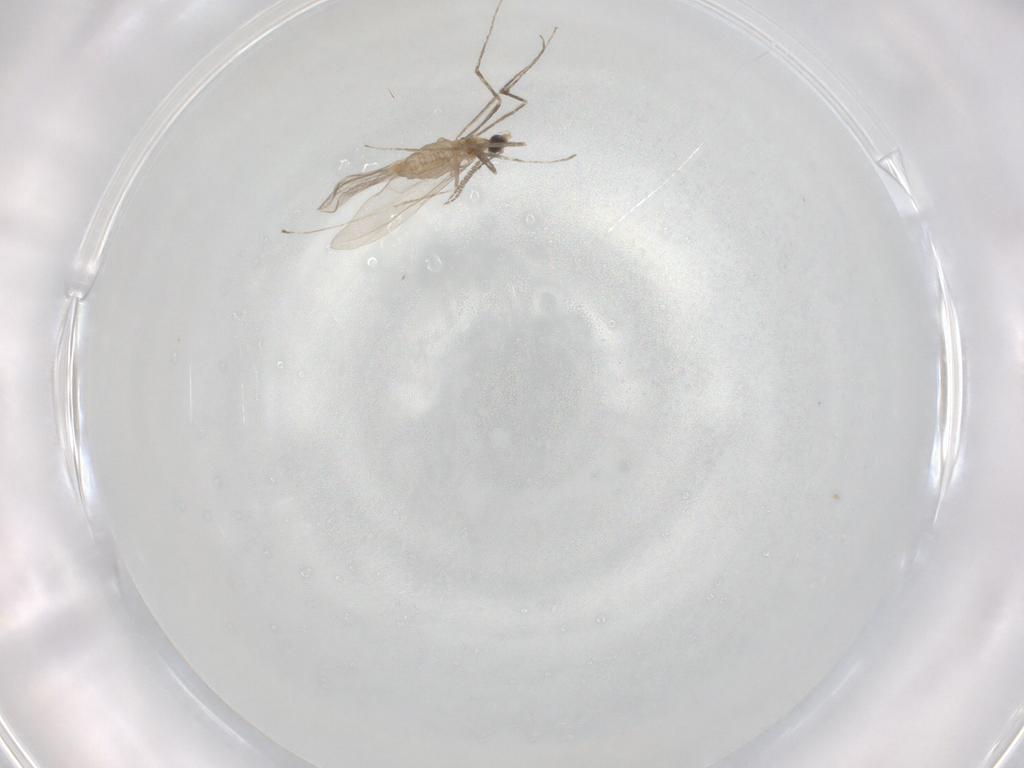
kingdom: Animalia
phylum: Arthropoda
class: Insecta
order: Diptera
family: Cecidomyiidae
